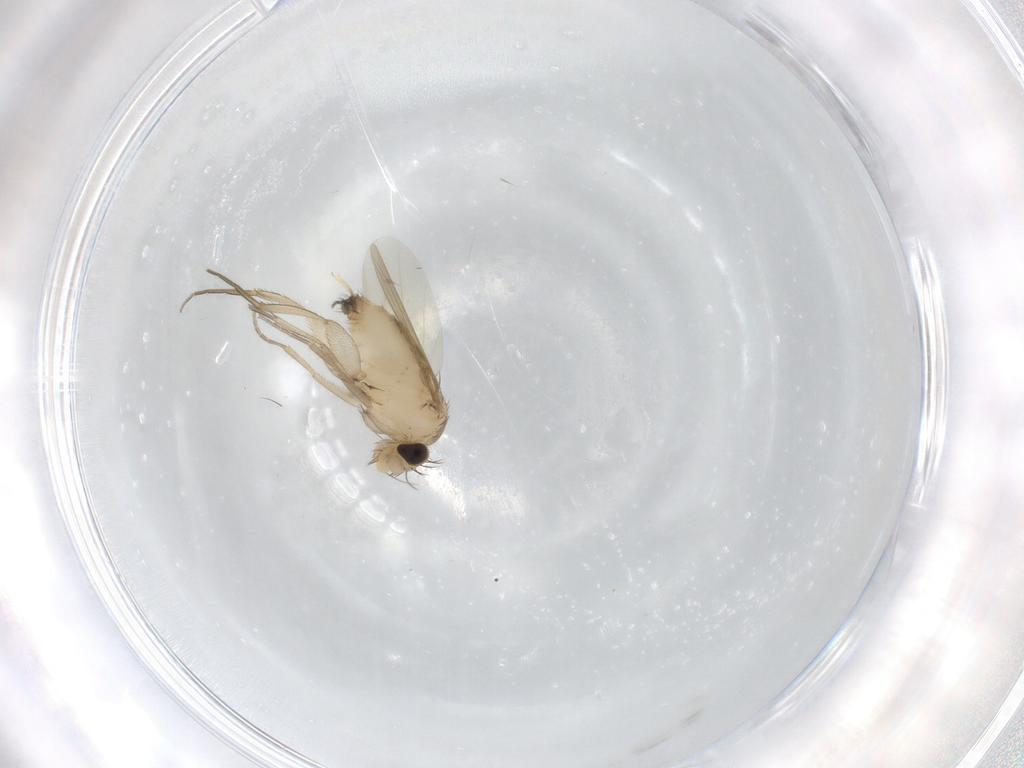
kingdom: Animalia
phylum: Arthropoda
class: Insecta
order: Diptera
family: Phoridae
